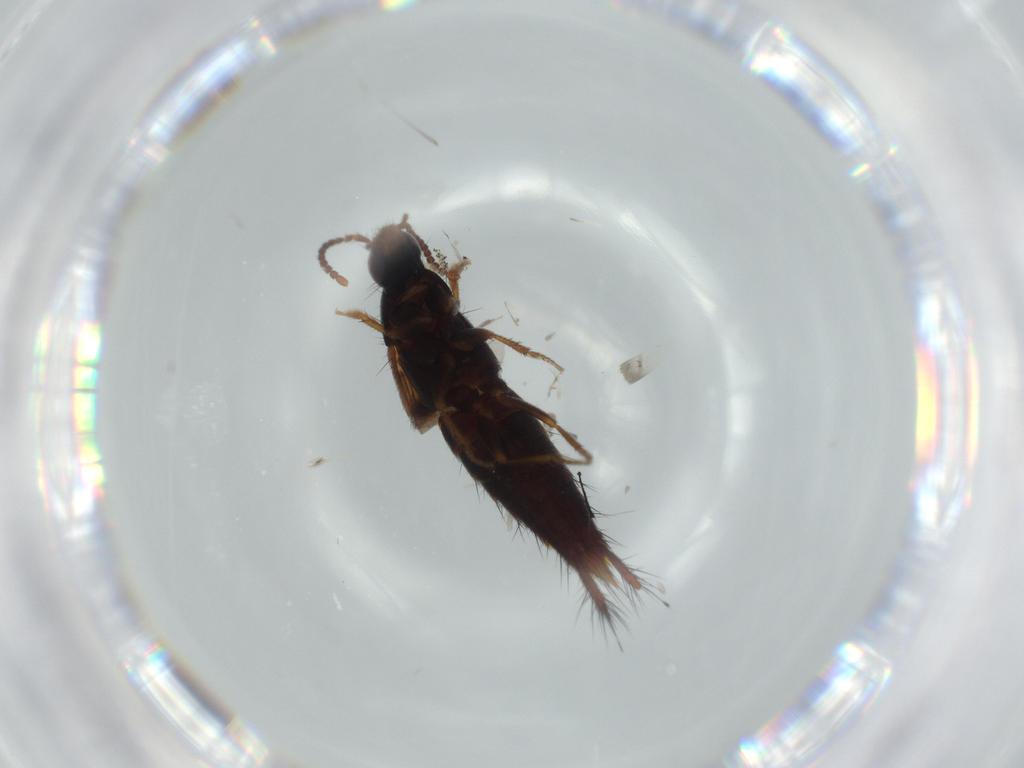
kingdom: Animalia
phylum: Arthropoda
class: Insecta
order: Coleoptera
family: Staphylinidae
